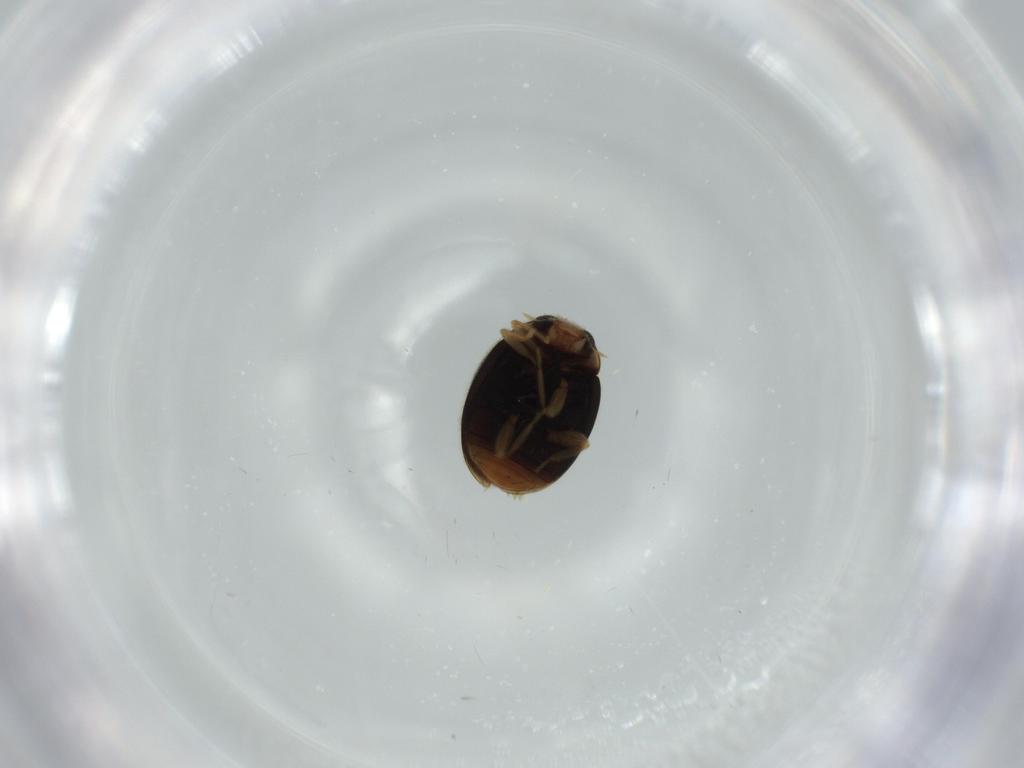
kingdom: Animalia
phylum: Arthropoda
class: Insecta
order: Coleoptera
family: Coccinellidae
